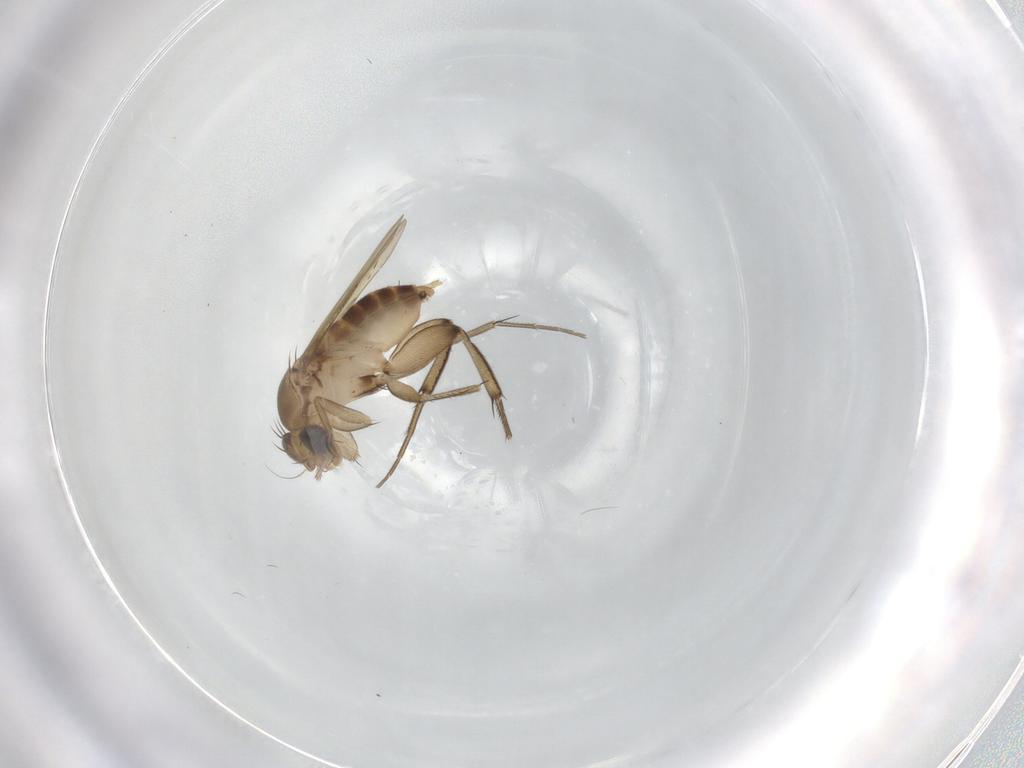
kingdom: Animalia
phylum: Arthropoda
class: Insecta
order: Diptera
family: Phoridae
